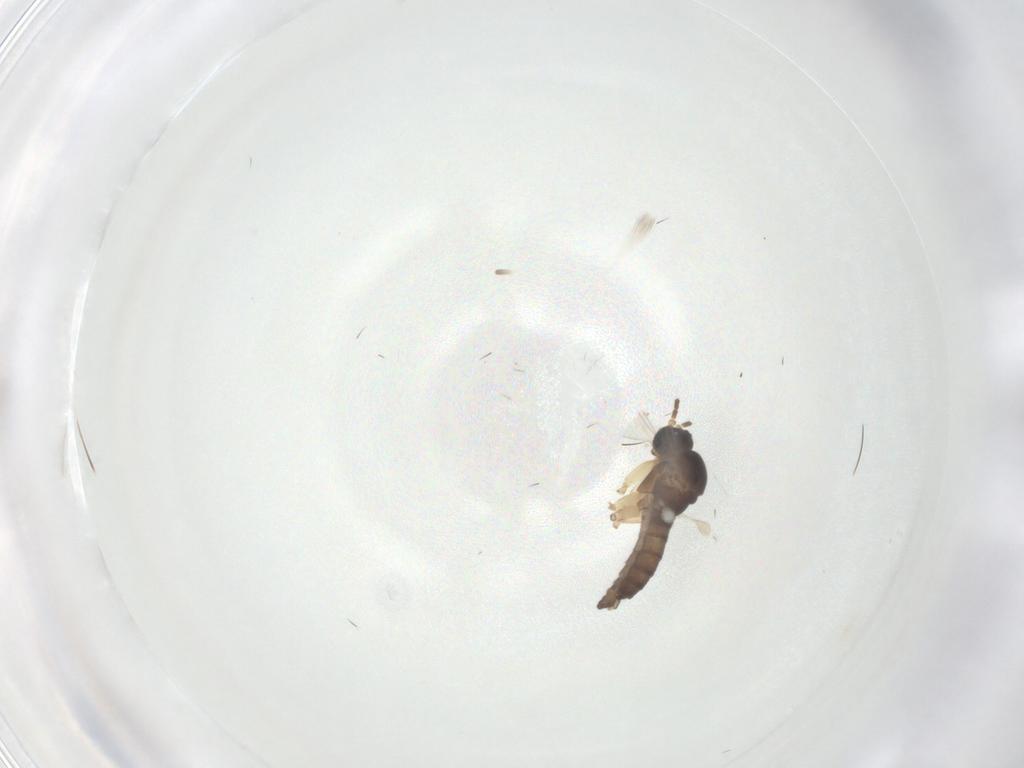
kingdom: Animalia
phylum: Arthropoda
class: Insecta
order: Diptera
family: Sciaridae
